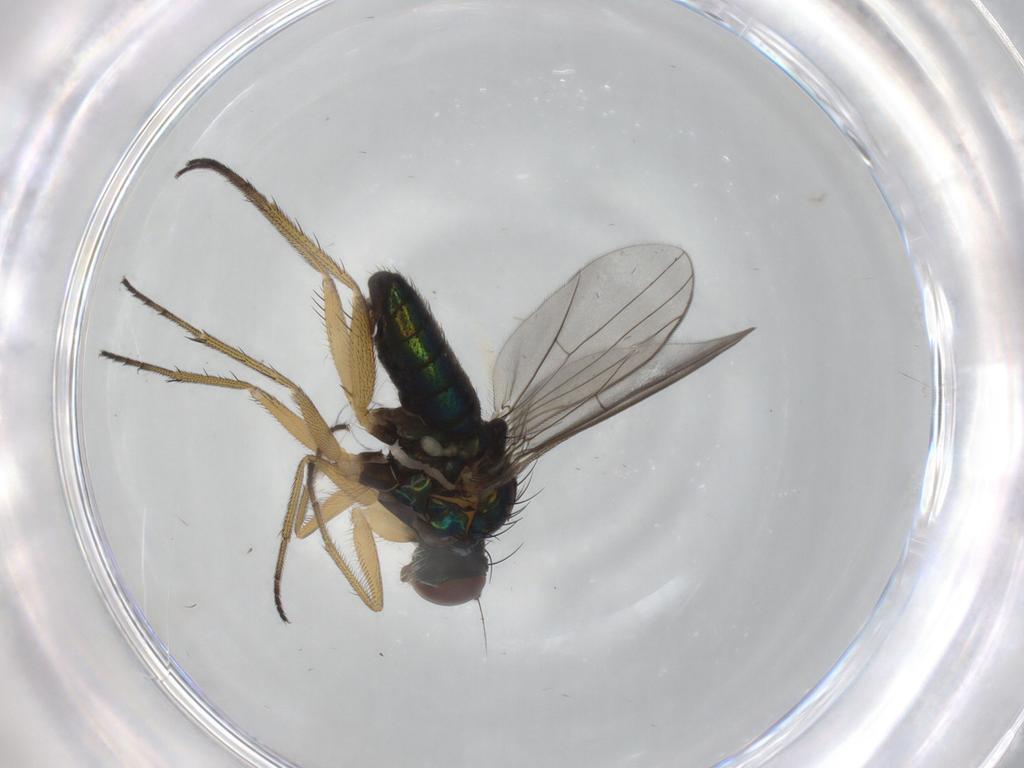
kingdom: Animalia
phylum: Arthropoda
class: Insecta
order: Diptera
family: Dolichopodidae
